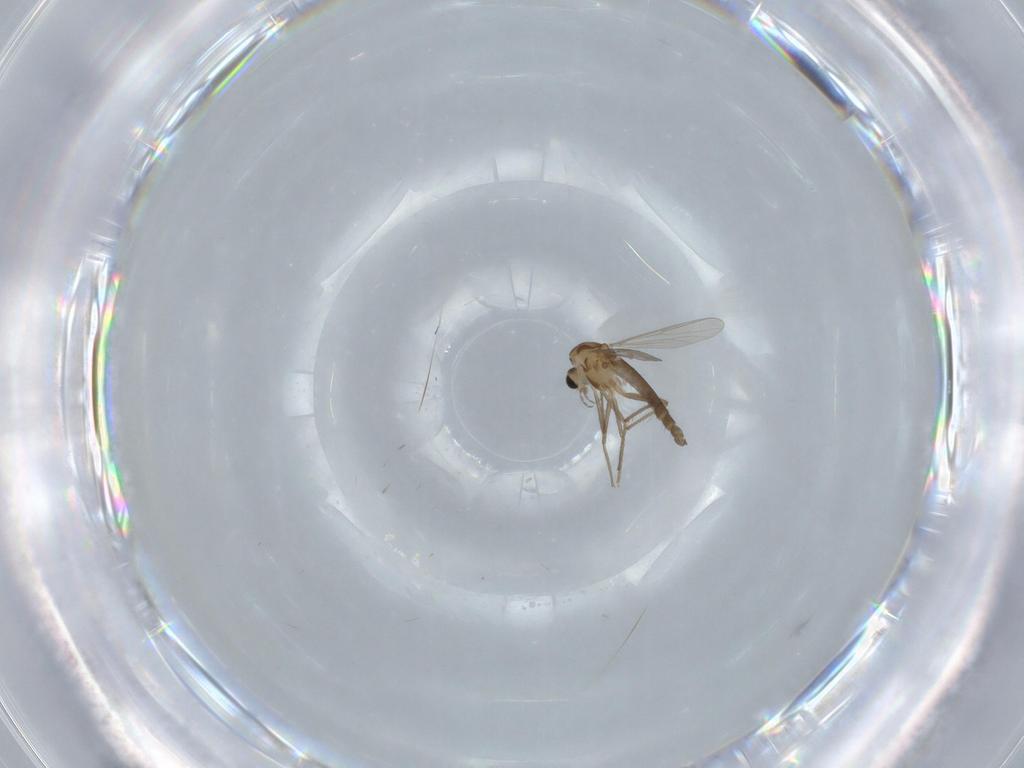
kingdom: Animalia
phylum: Arthropoda
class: Insecta
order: Diptera
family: Chironomidae
